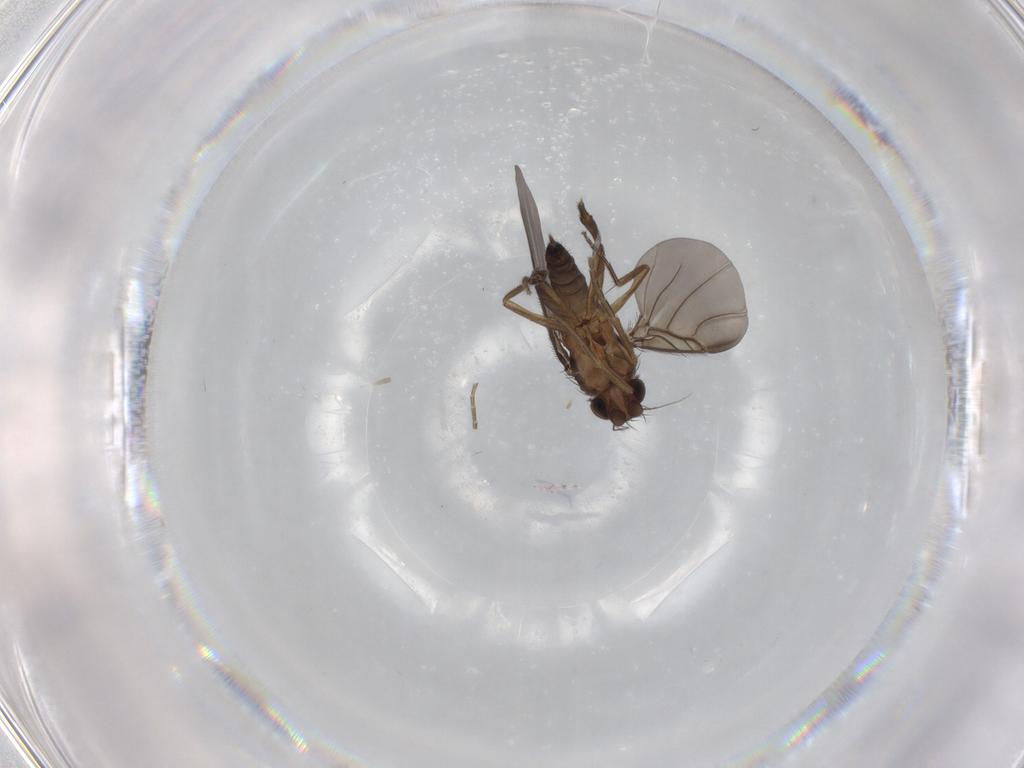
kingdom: Animalia
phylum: Arthropoda
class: Insecta
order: Diptera
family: Phoridae
